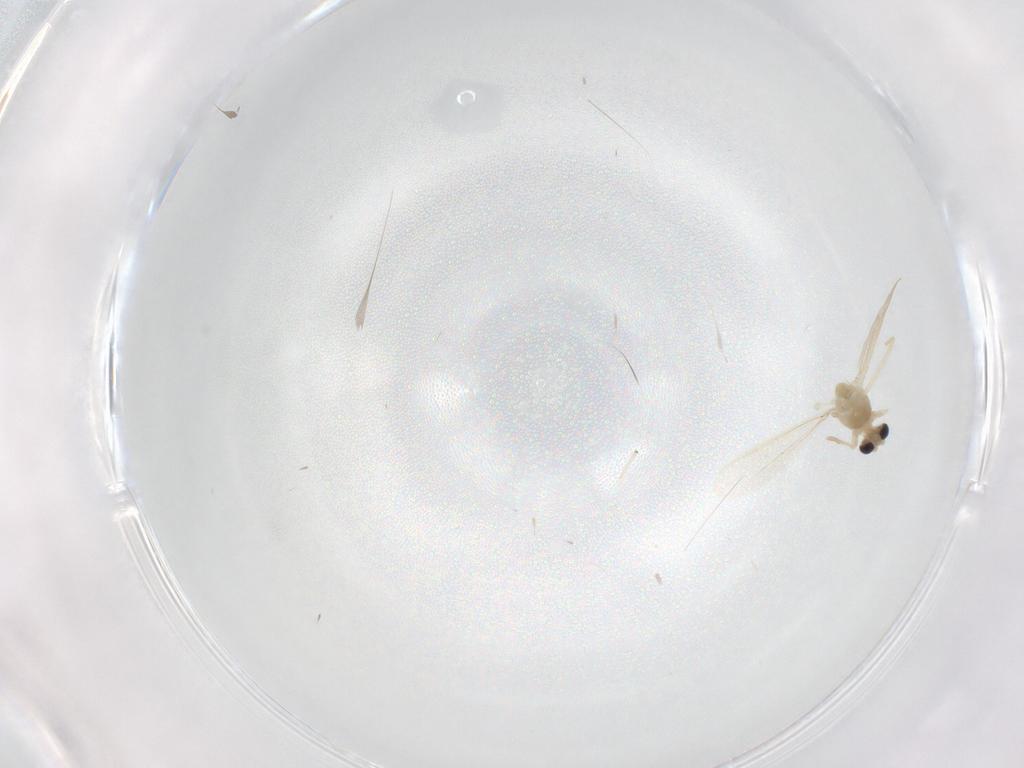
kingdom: Animalia
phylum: Arthropoda
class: Insecta
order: Diptera
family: Chironomidae
